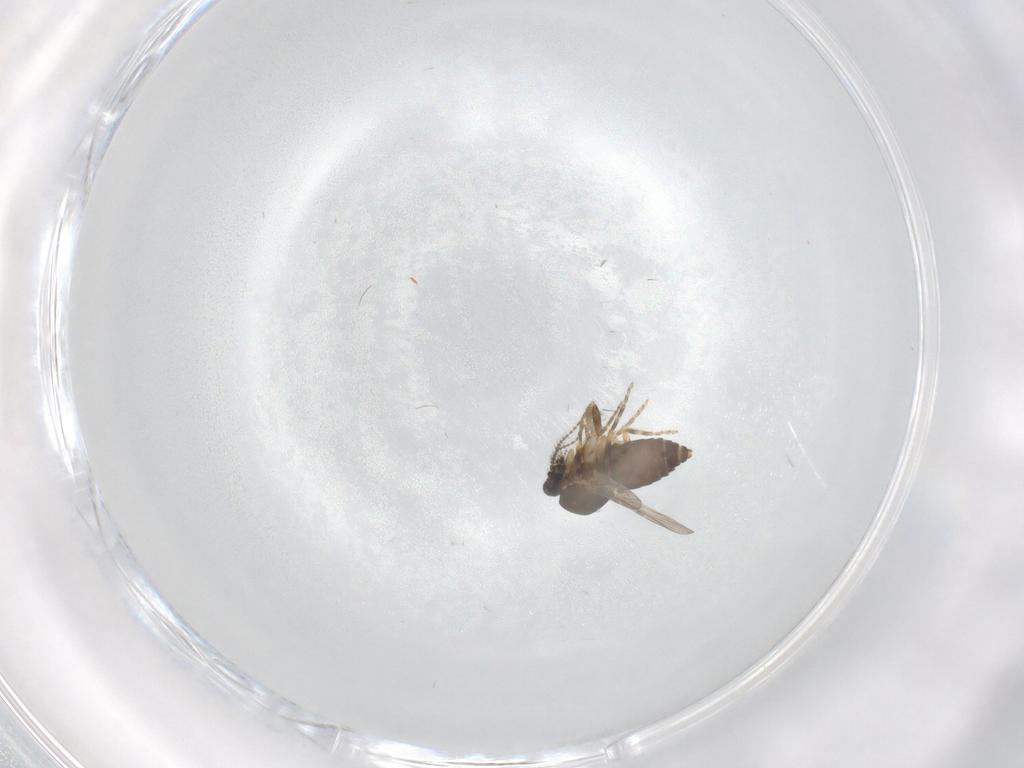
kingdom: Animalia
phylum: Arthropoda
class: Insecta
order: Diptera
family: Ceratopogonidae
